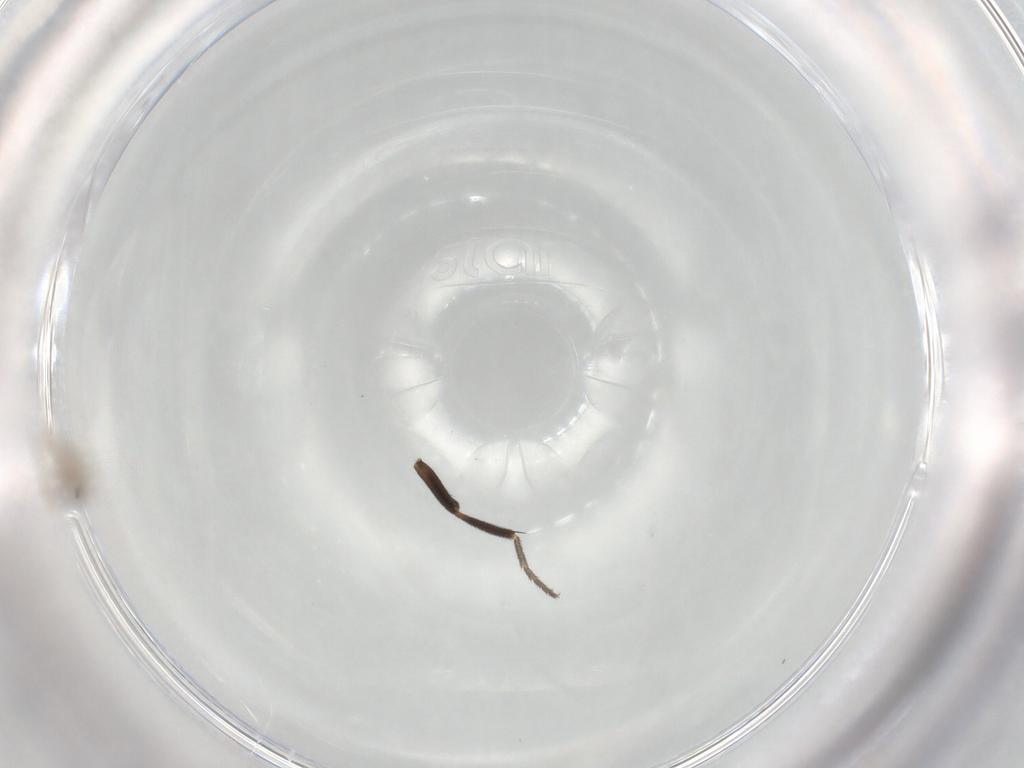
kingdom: Animalia
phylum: Arthropoda
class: Insecta
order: Diptera
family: Cecidomyiidae
